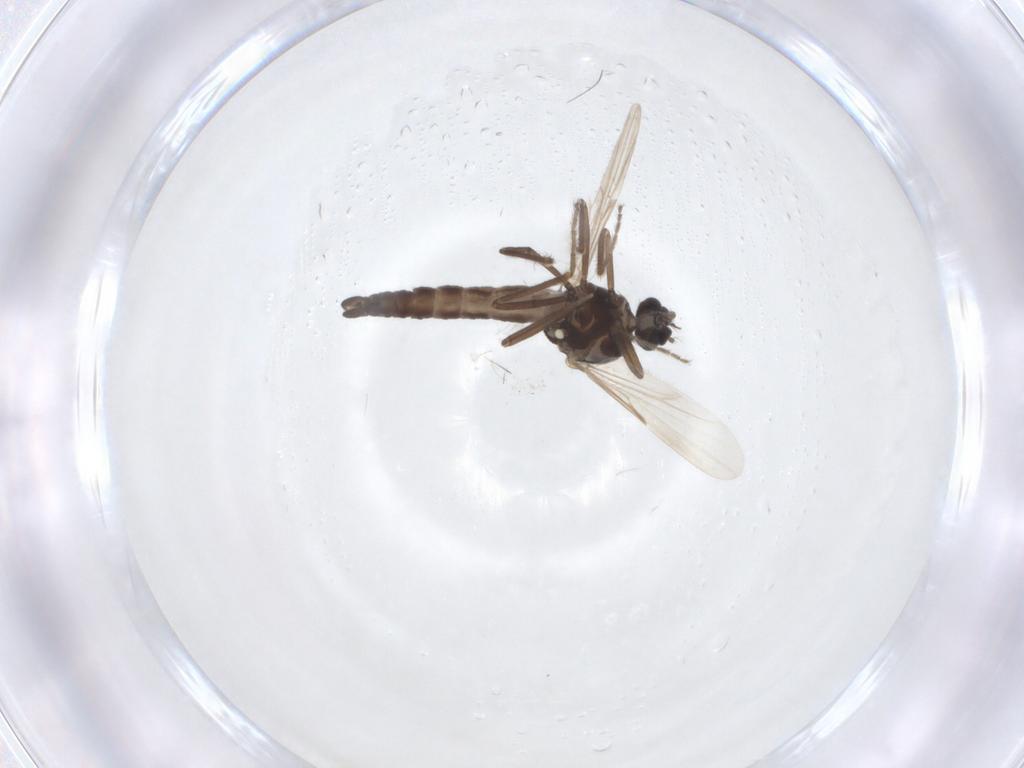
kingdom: Animalia
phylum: Arthropoda
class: Insecta
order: Diptera
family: Ceratopogonidae
